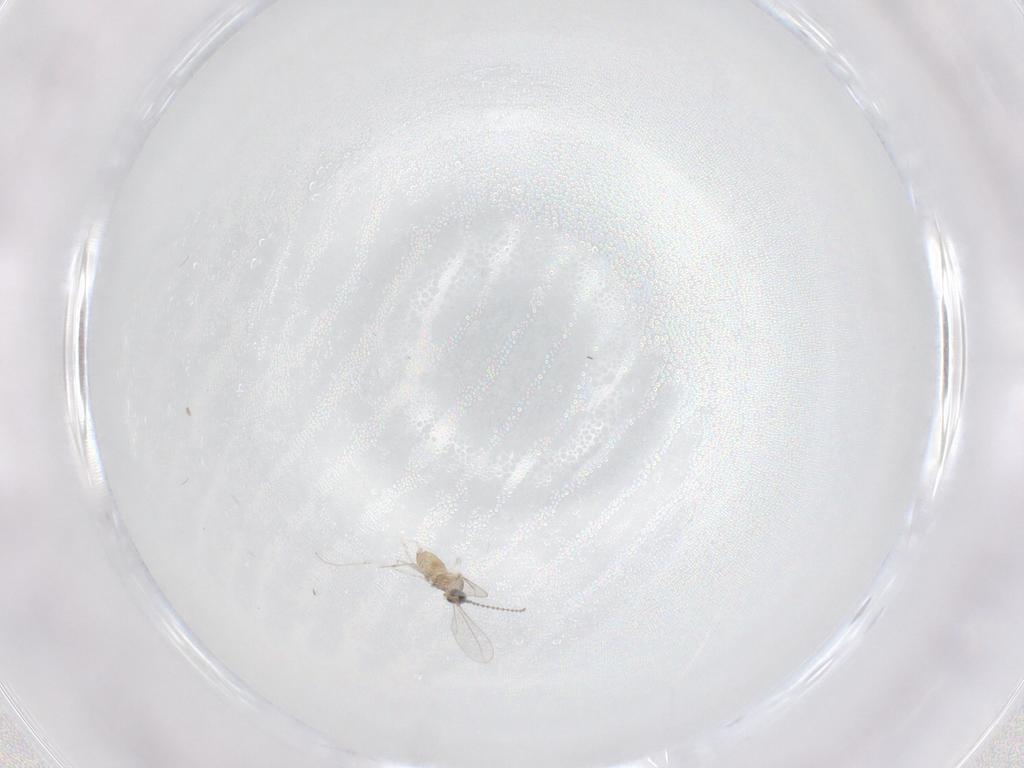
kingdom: Animalia
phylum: Arthropoda
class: Insecta
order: Diptera
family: Cecidomyiidae
